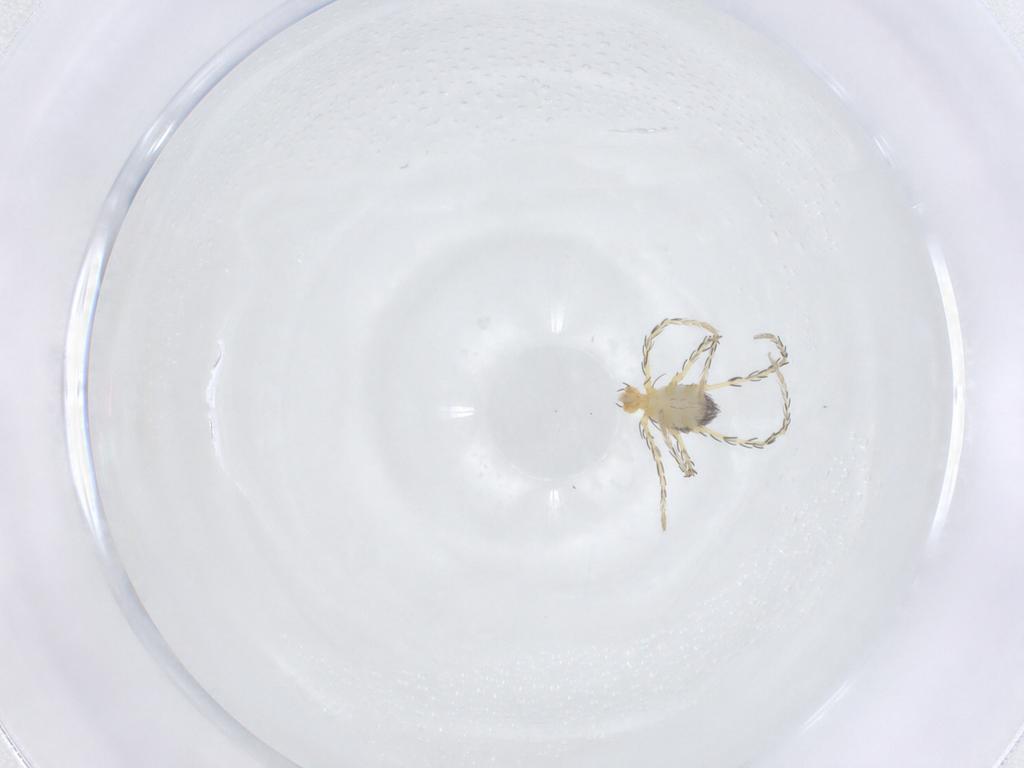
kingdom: Animalia
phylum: Arthropoda
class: Arachnida
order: Trombidiformes
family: Erythraeidae
